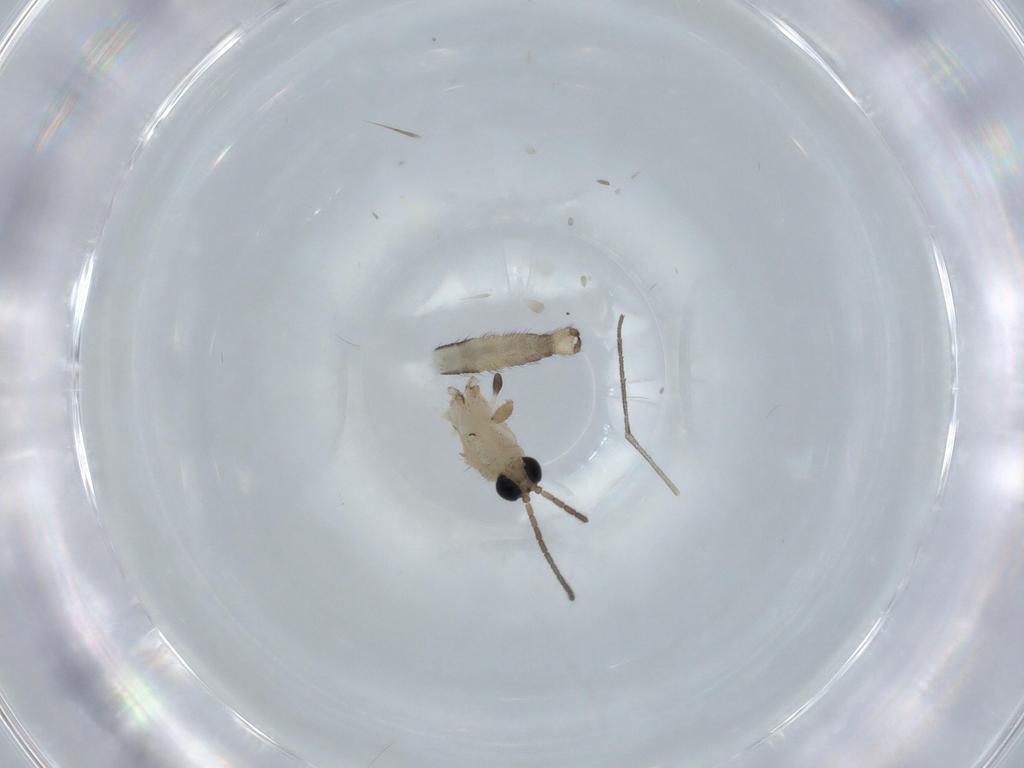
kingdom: Animalia
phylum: Arthropoda
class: Insecta
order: Diptera
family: Sciaridae
